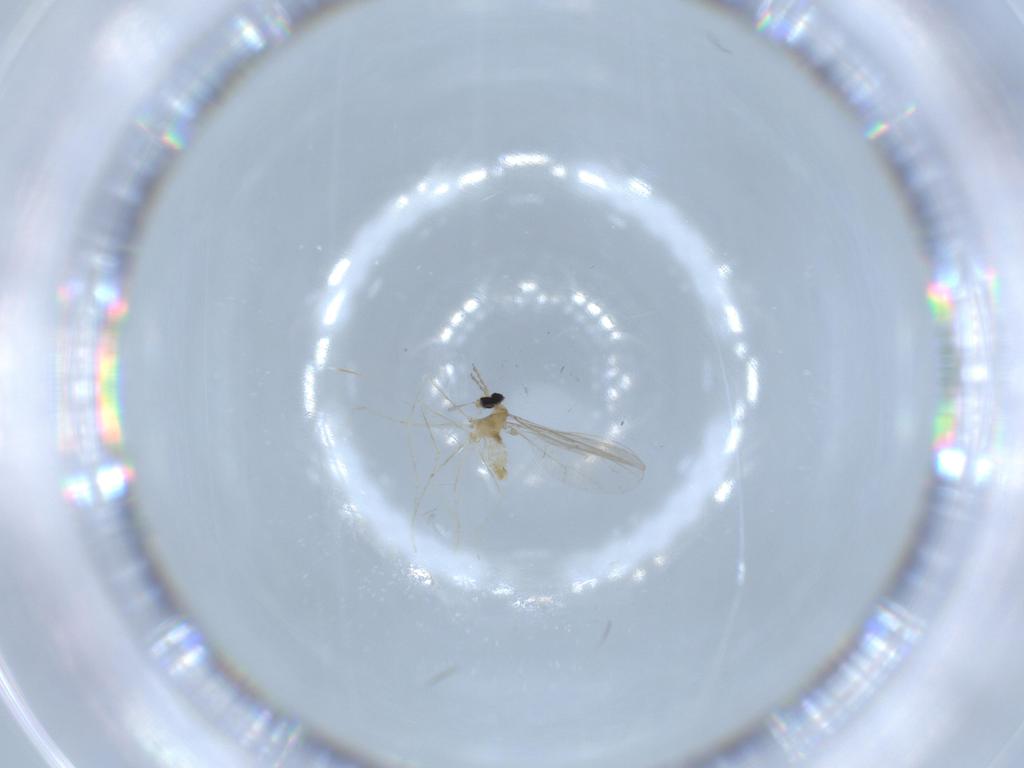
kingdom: Animalia
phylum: Arthropoda
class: Insecta
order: Diptera
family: Cecidomyiidae
